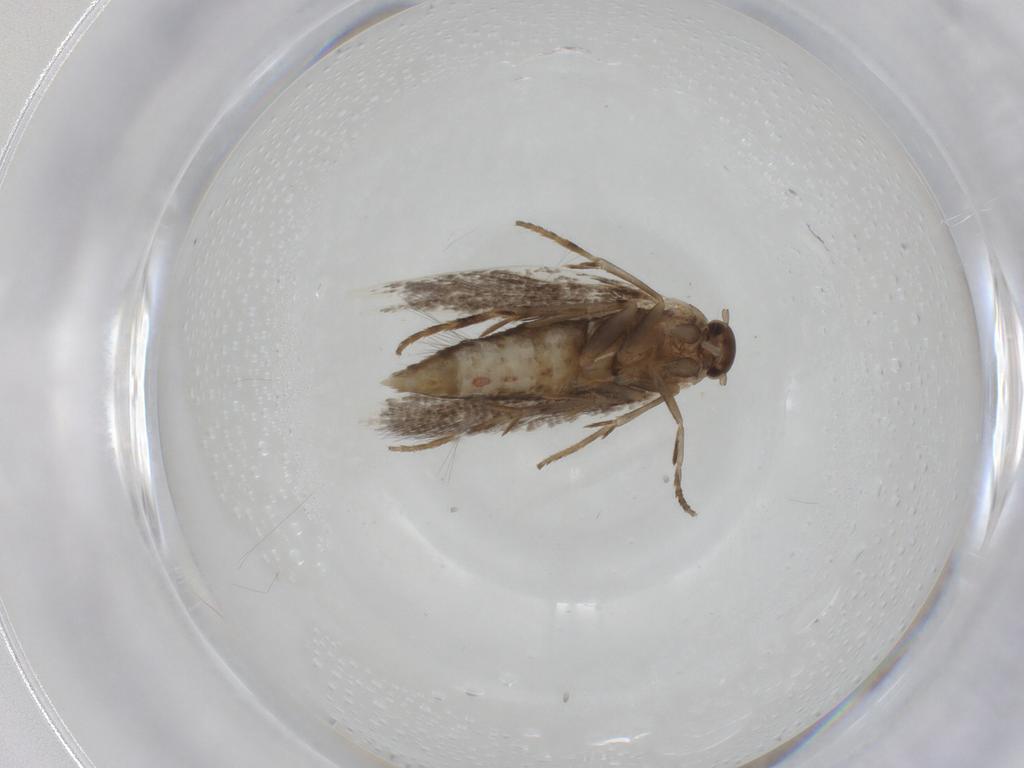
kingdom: Animalia
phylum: Arthropoda
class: Insecta
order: Lepidoptera
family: Elachistidae
